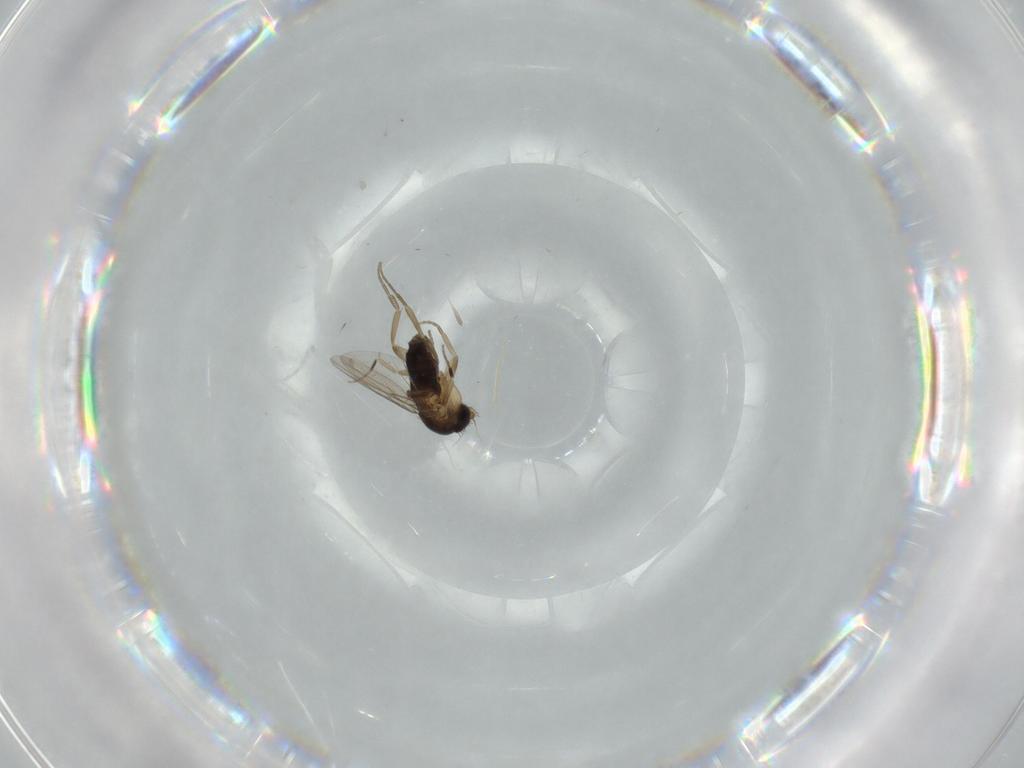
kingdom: Animalia
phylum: Arthropoda
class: Insecta
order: Diptera
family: Phoridae
